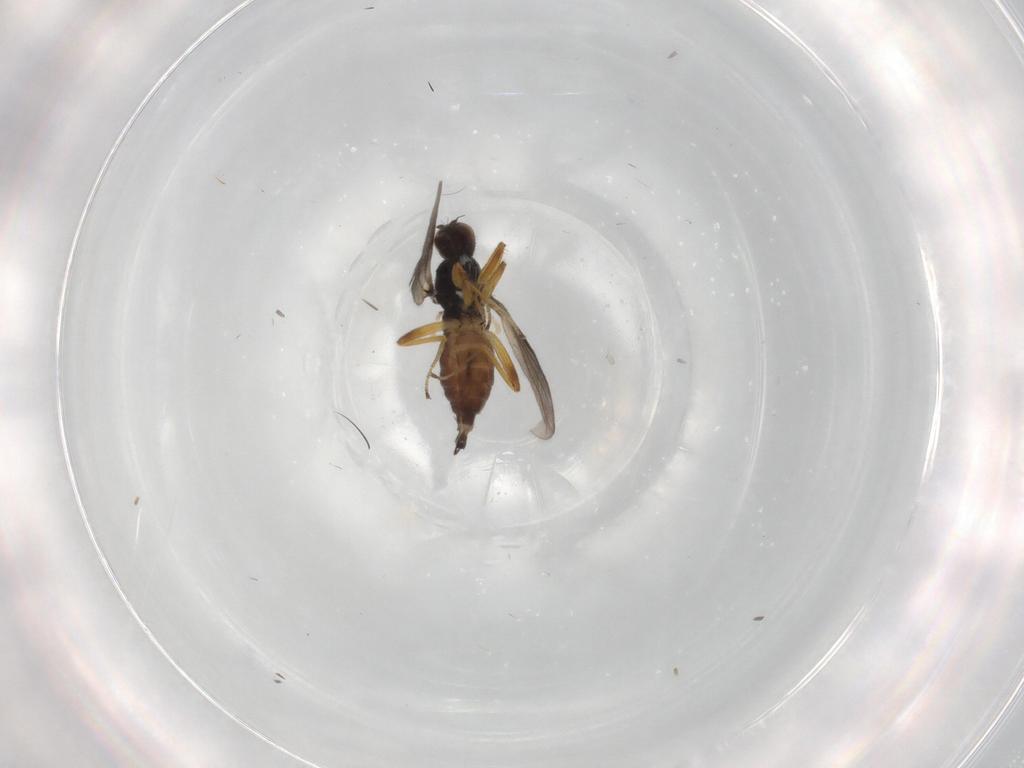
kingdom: Animalia
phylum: Arthropoda
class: Insecta
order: Diptera
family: Hybotidae
